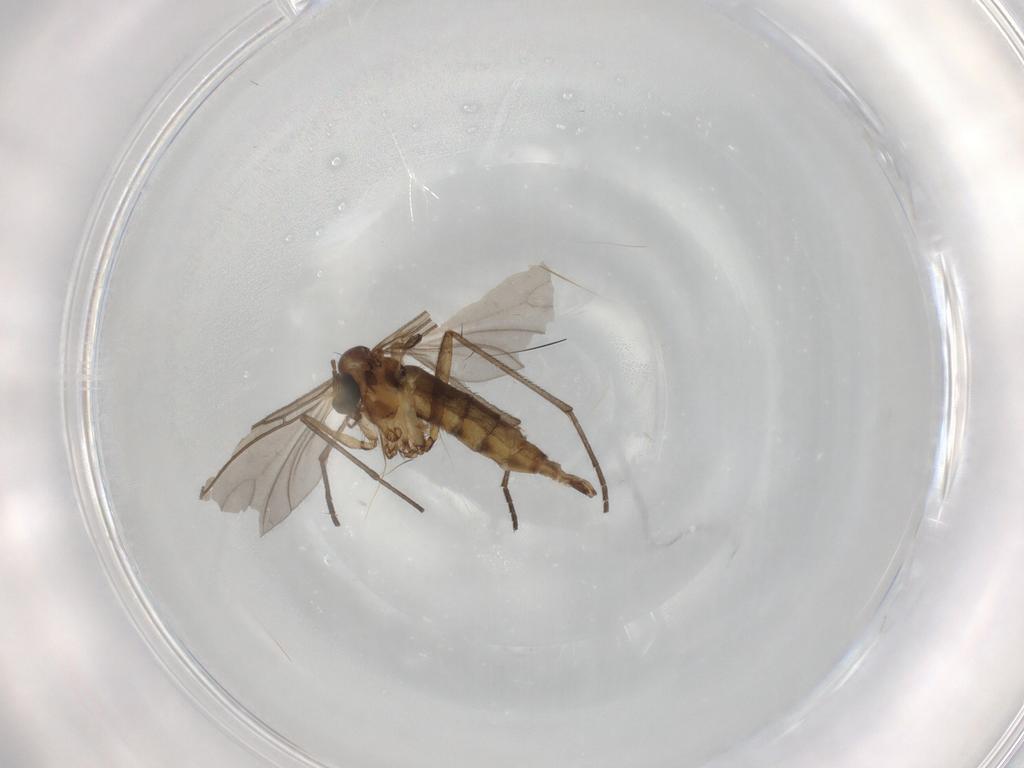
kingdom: Animalia
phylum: Arthropoda
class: Insecta
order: Diptera
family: Sciaridae
